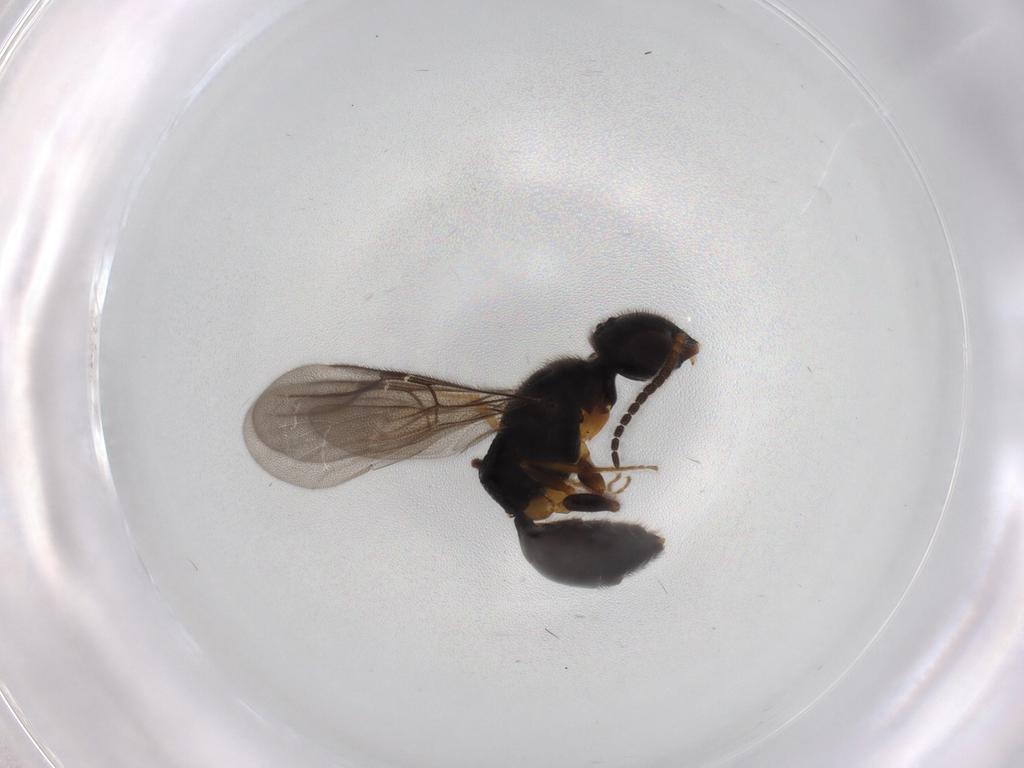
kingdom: Animalia
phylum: Arthropoda
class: Insecta
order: Hymenoptera
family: Bethylidae
